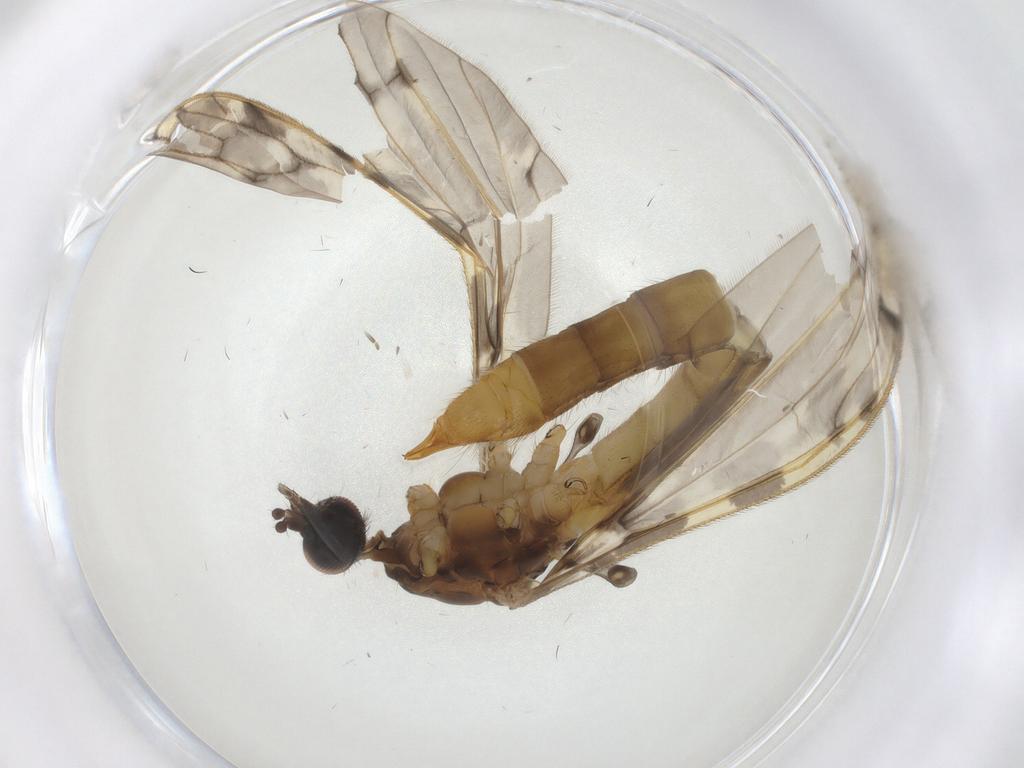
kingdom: Animalia
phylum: Arthropoda
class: Insecta
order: Diptera
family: Limoniidae
